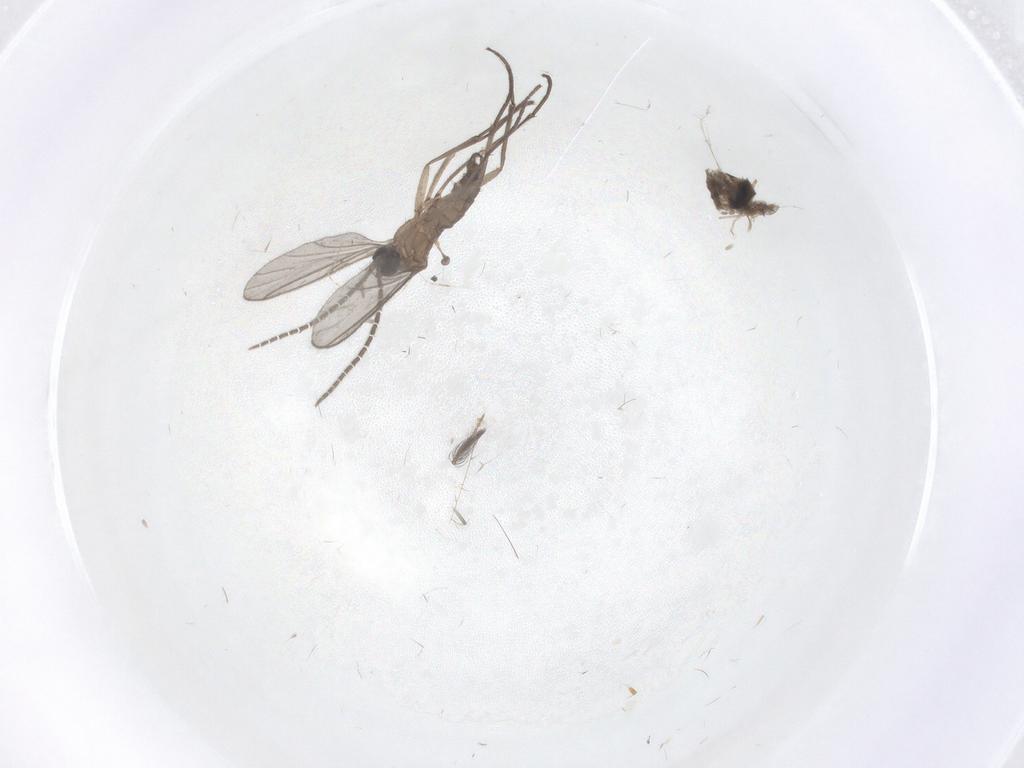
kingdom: Animalia
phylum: Arthropoda
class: Insecta
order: Diptera
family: Sciaridae
